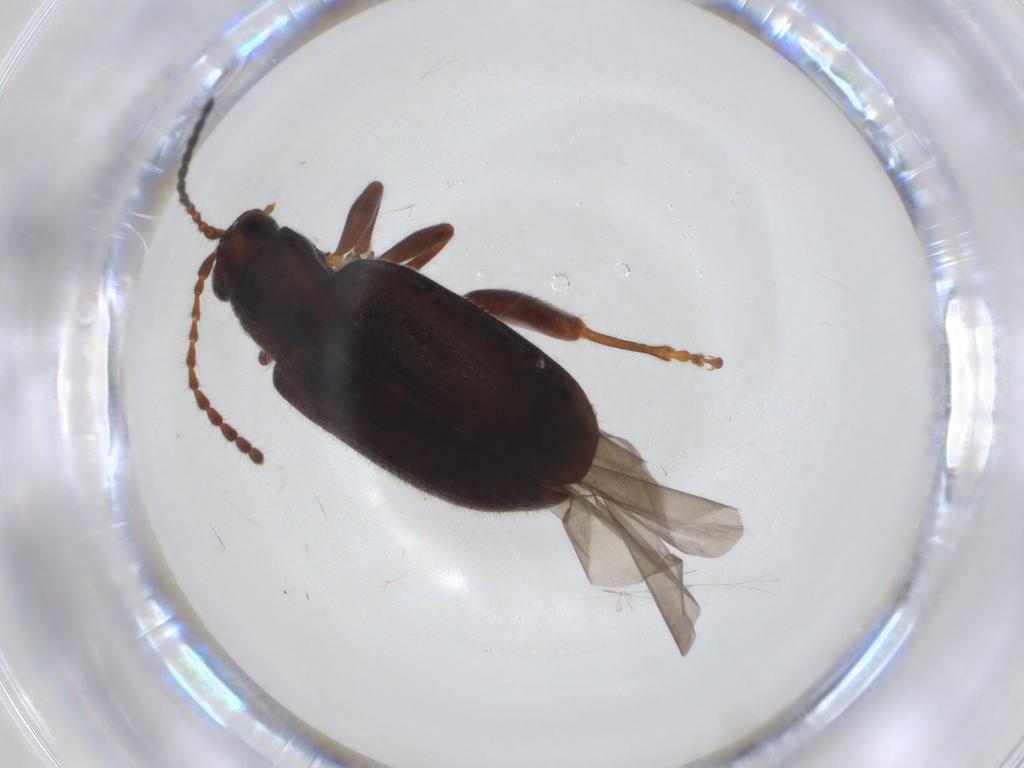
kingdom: Animalia
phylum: Arthropoda
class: Insecta
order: Coleoptera
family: Chrysomelidae
